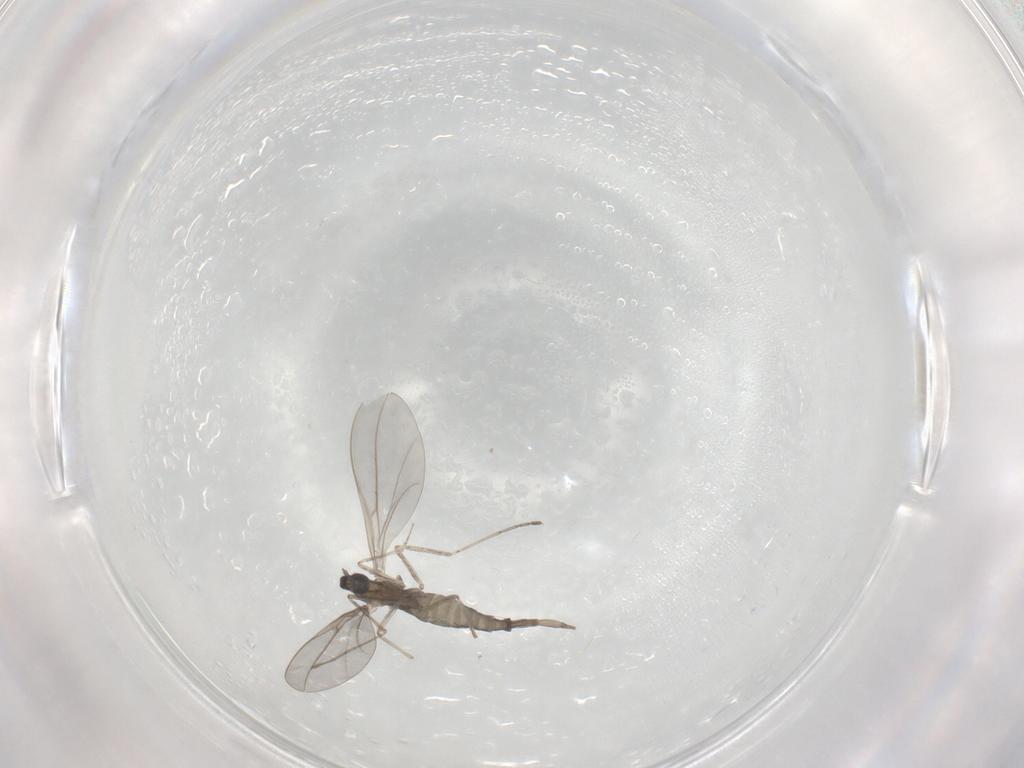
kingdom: Animalia
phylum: Arthropoda
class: Insecta
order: Diptera
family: Cecidomyiidae
